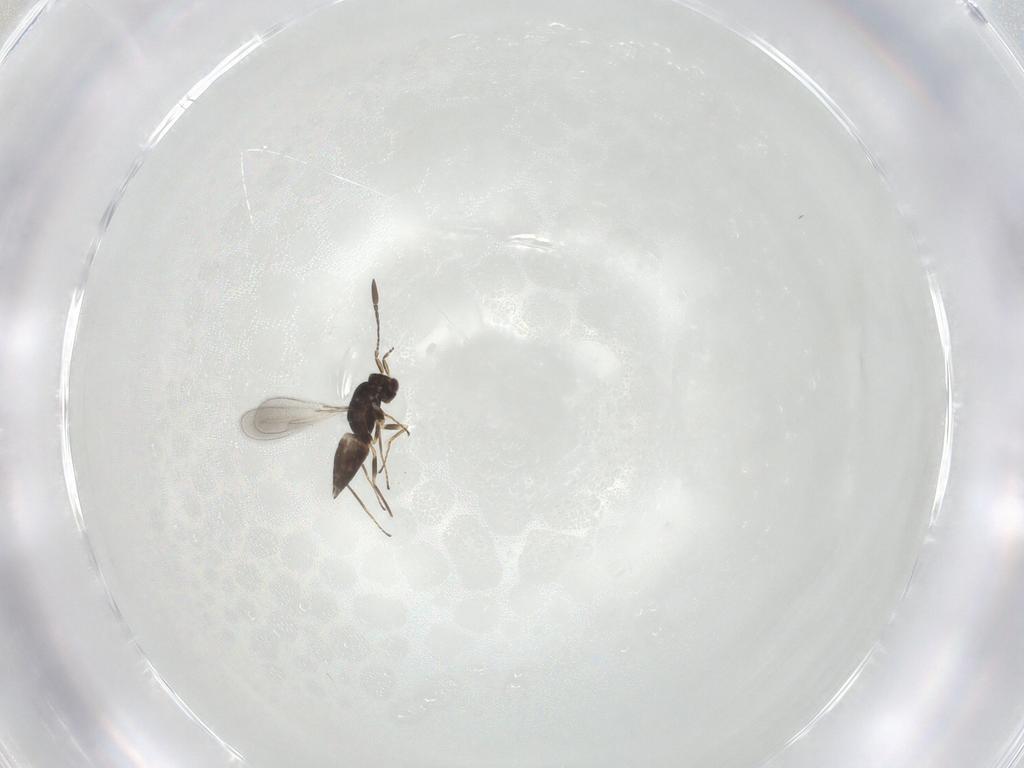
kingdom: Animalia
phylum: Arthropoda
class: Insecta
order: Hymenoptera
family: Mymaridae
